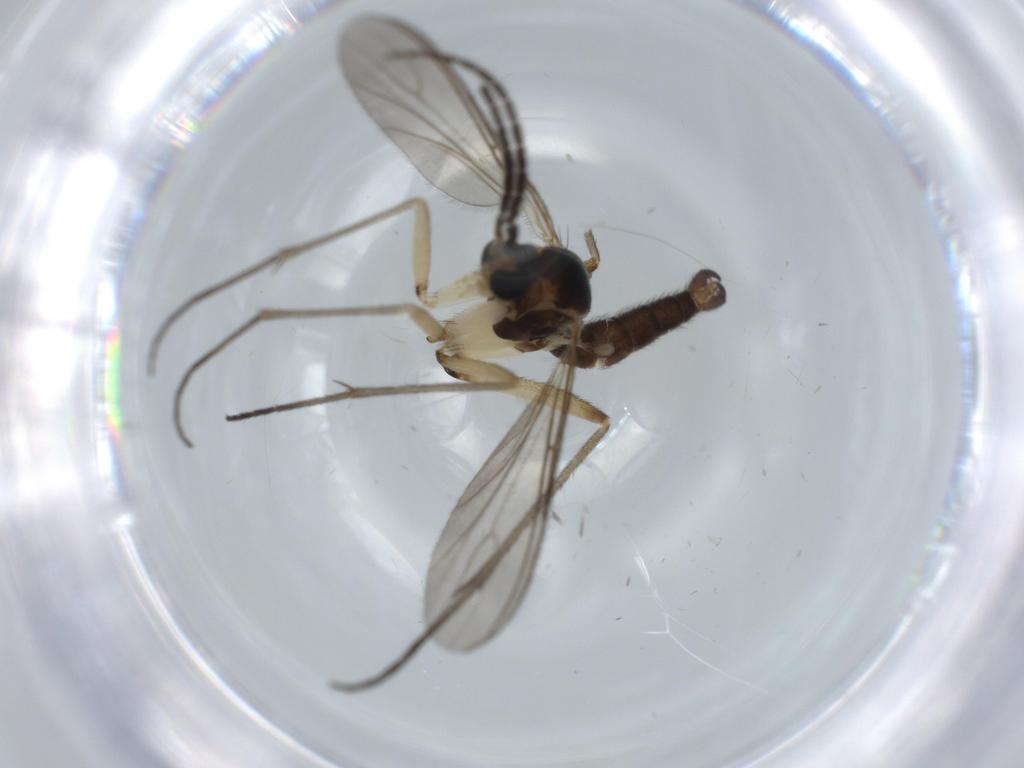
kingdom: Animalia
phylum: Arthropoda
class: Insecta
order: Diptera
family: Sciaridae
